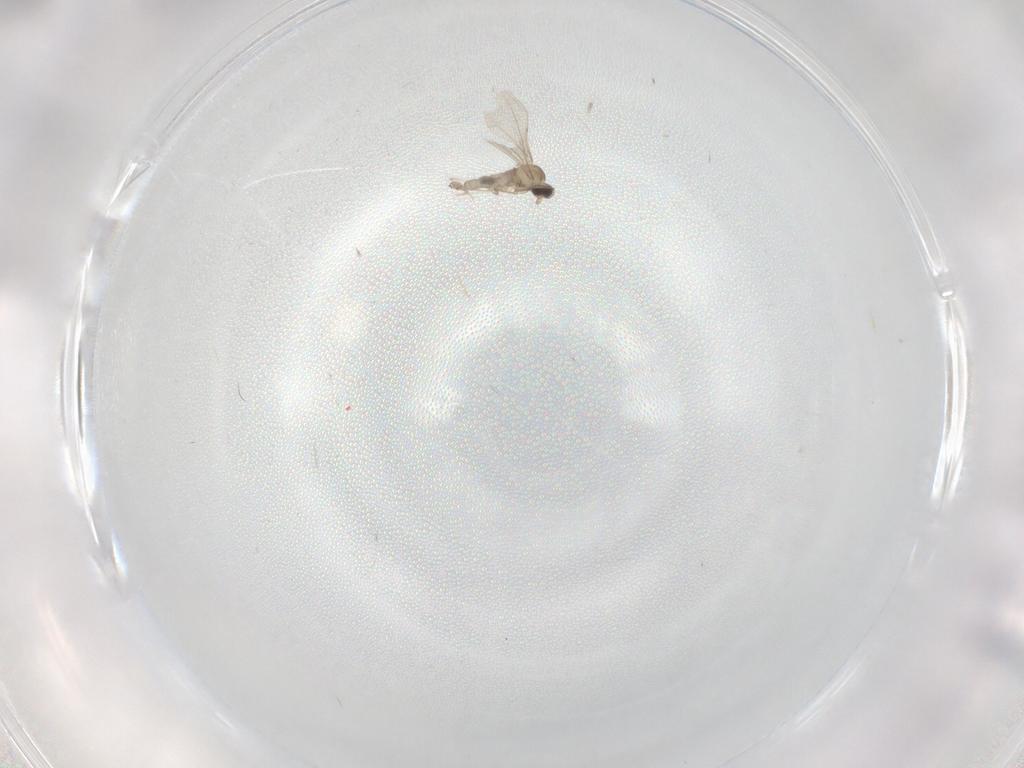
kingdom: Animalia
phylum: Arthropoda
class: Insecta
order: Diptera
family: Cecidomyiidae
